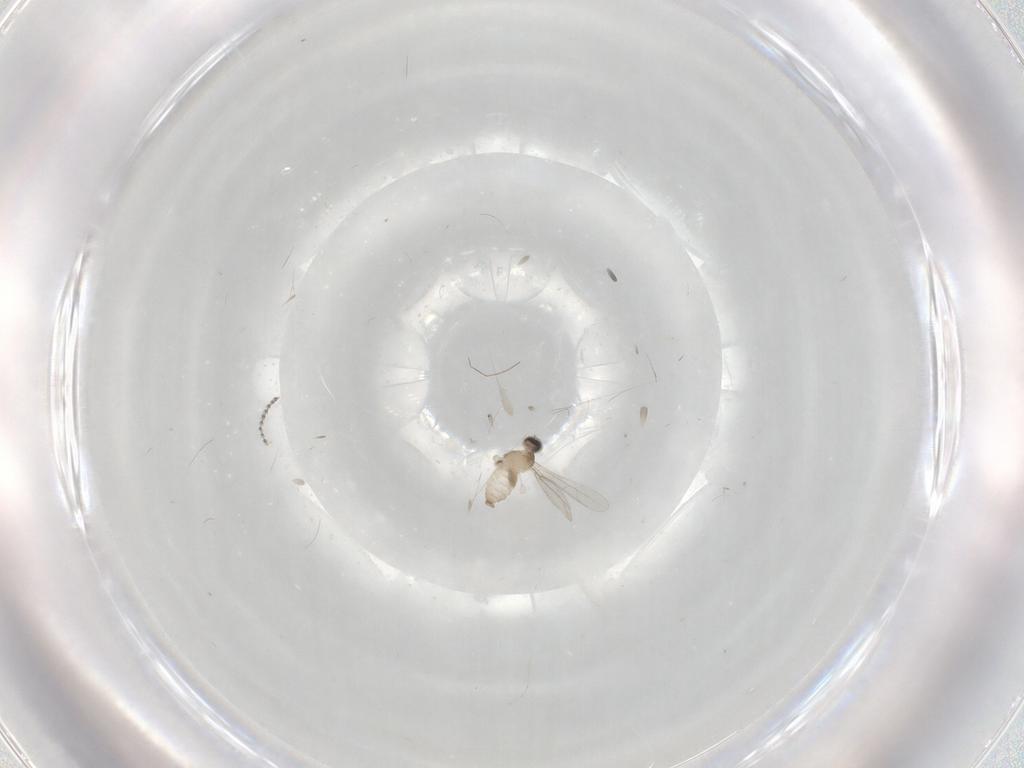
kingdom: Animalia
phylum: Arthropoda
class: Insecta
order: Diptera
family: Cecidomyiidae
